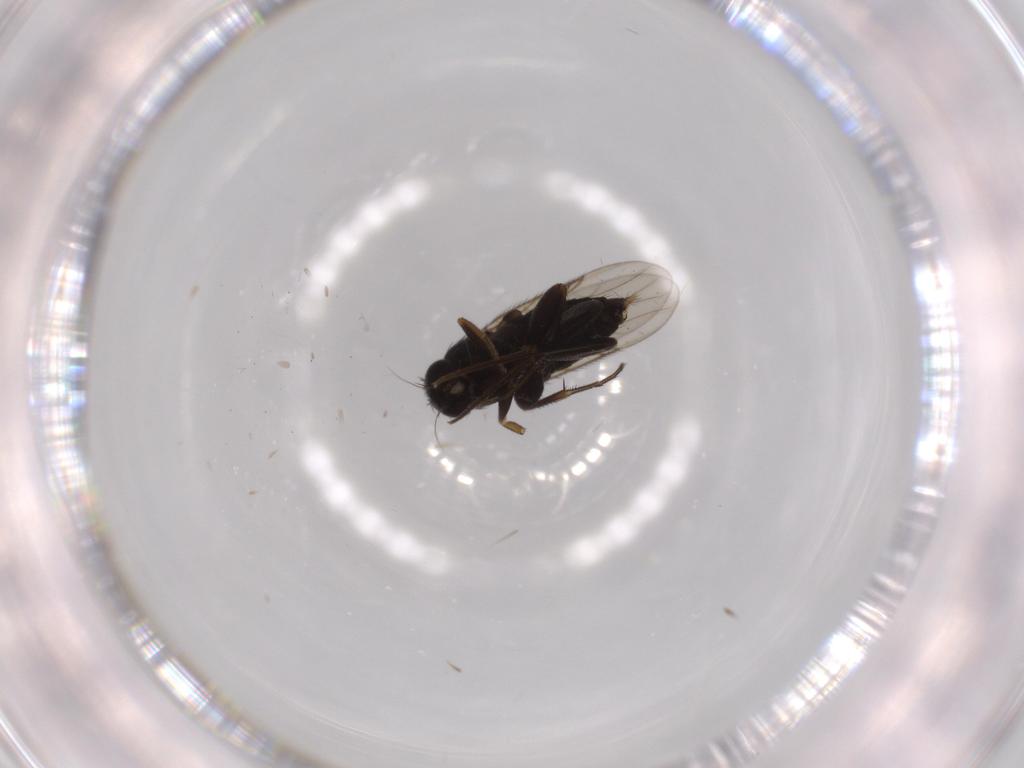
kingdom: Animalia
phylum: Arthropoda
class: Insecta
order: Diptera
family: Phoridae
